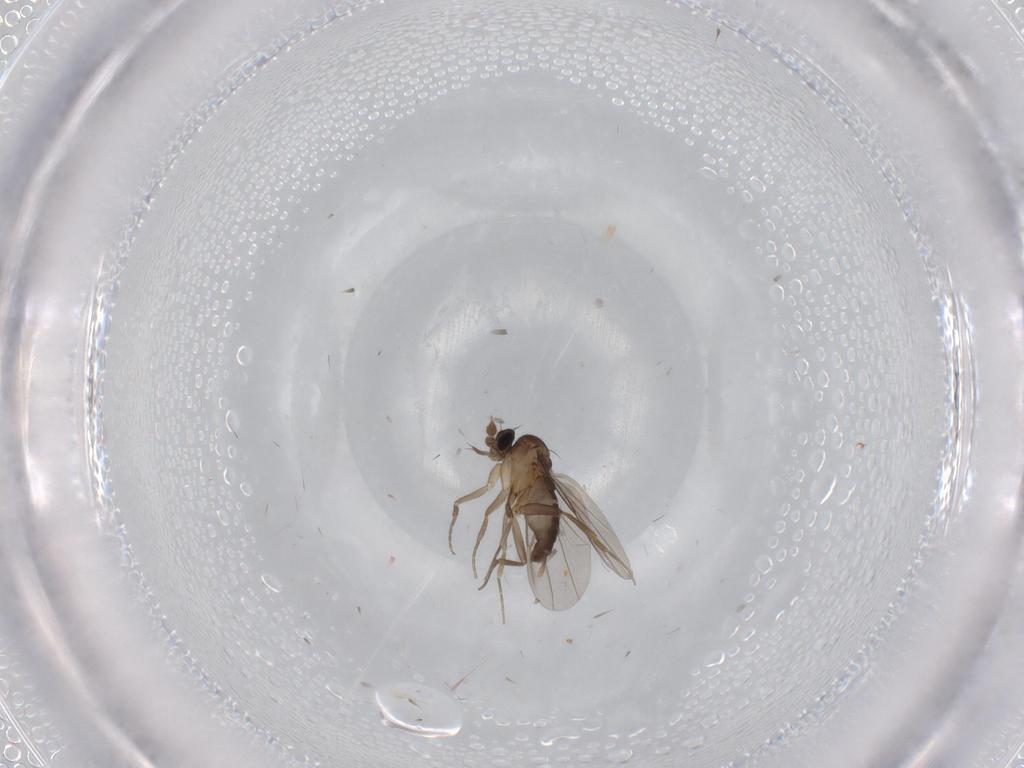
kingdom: Animalia
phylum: Arthropoda
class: Insecta
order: Diptera
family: Phoridae
